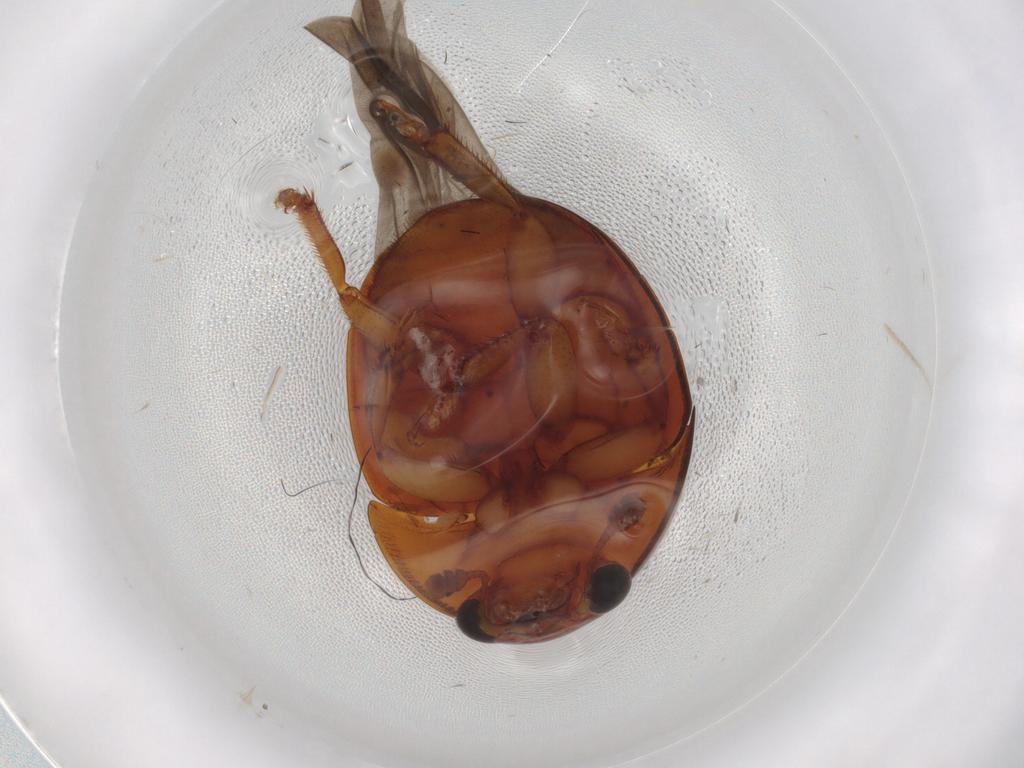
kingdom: Animalia
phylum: Arthropoda
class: Insecta
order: Coleoptera
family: Nitidulidae
